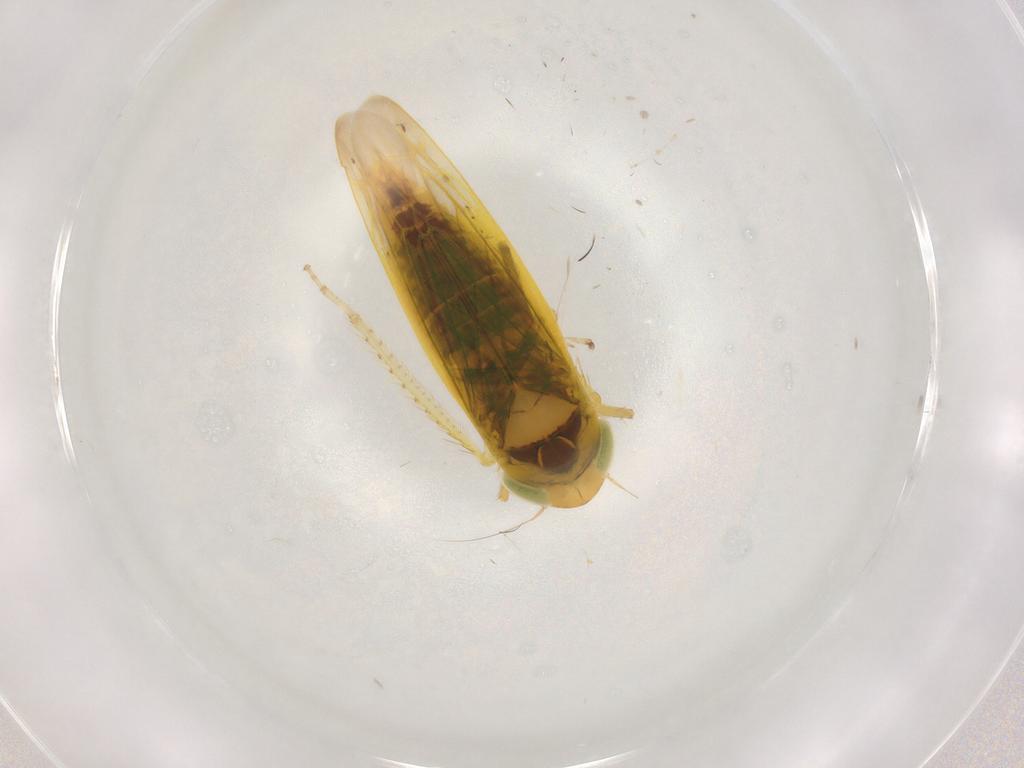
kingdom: Animalia
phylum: Arthropoda
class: Insecta
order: Hemiptera
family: Cicadellidae
